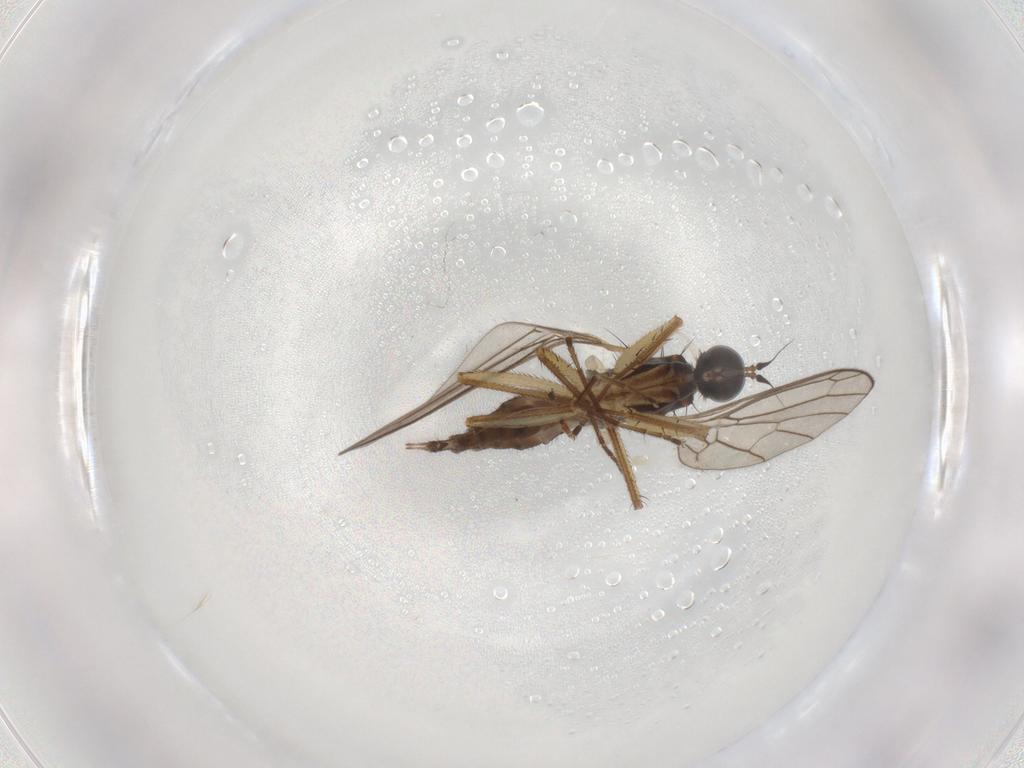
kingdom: Animalia
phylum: Arthropoda
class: Insecta
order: Diptera
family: Empididae
